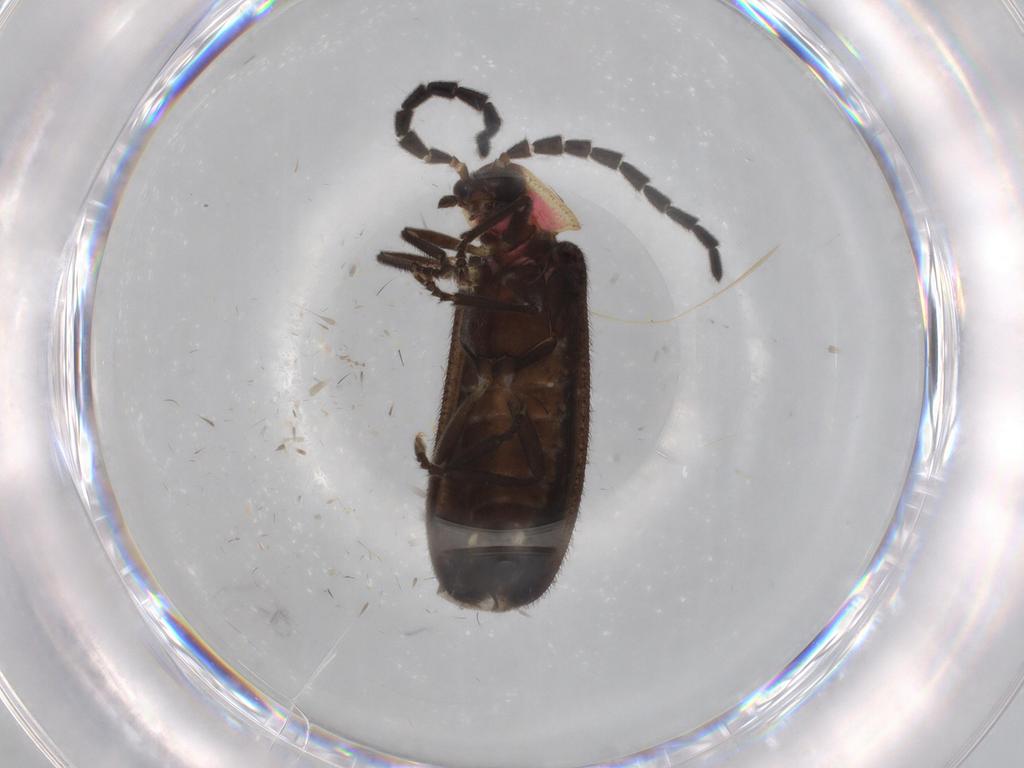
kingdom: Animalia
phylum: Arthropoda
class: Insecta
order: Coleoptera
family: Lampyridae
